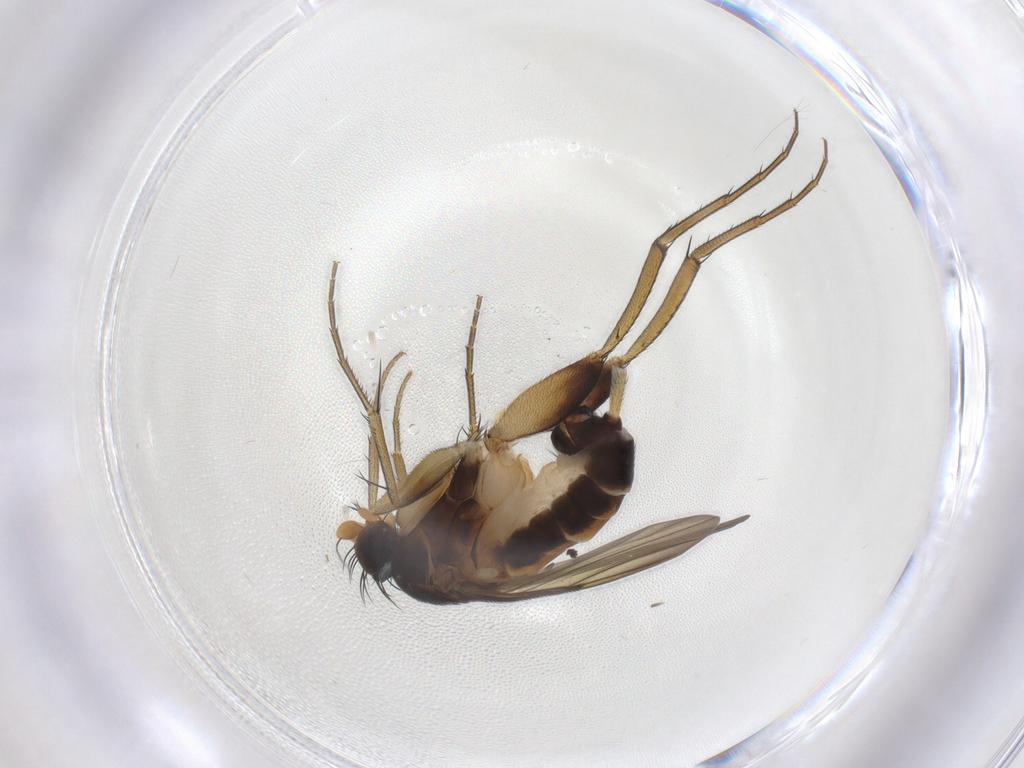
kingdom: Animalia
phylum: Arthropoda
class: Insecta
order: Diptera
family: Phoridae
